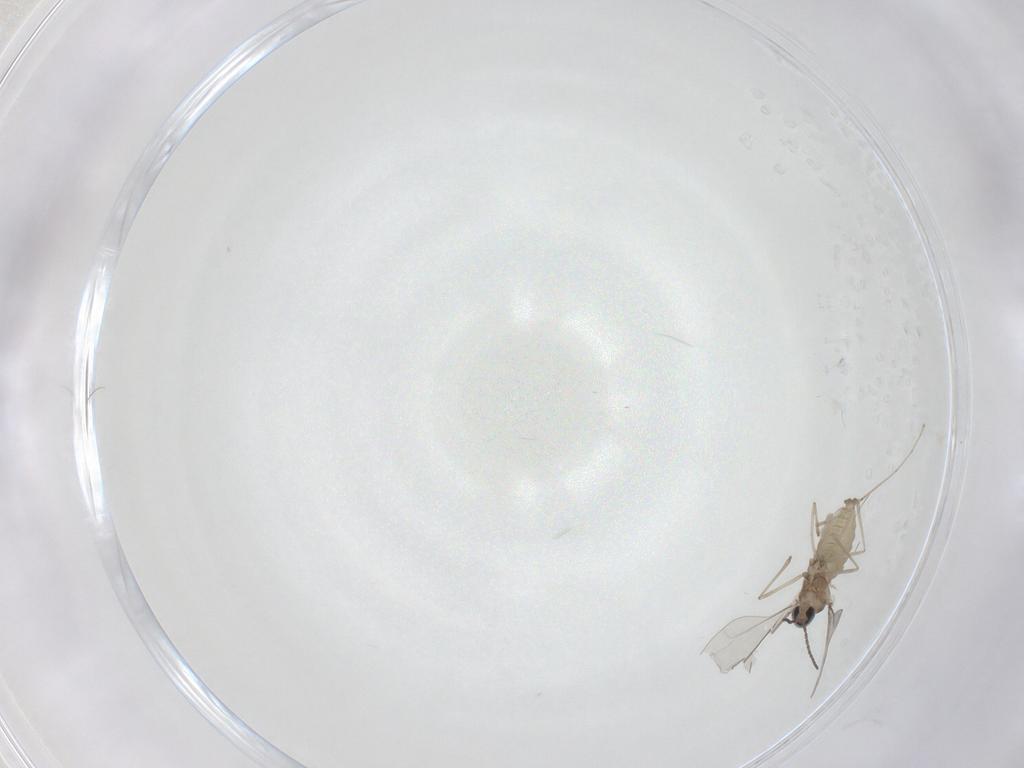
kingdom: Animalia
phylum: Arthropoda
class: Insecta
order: Diptera
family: Cecidomyiidae
